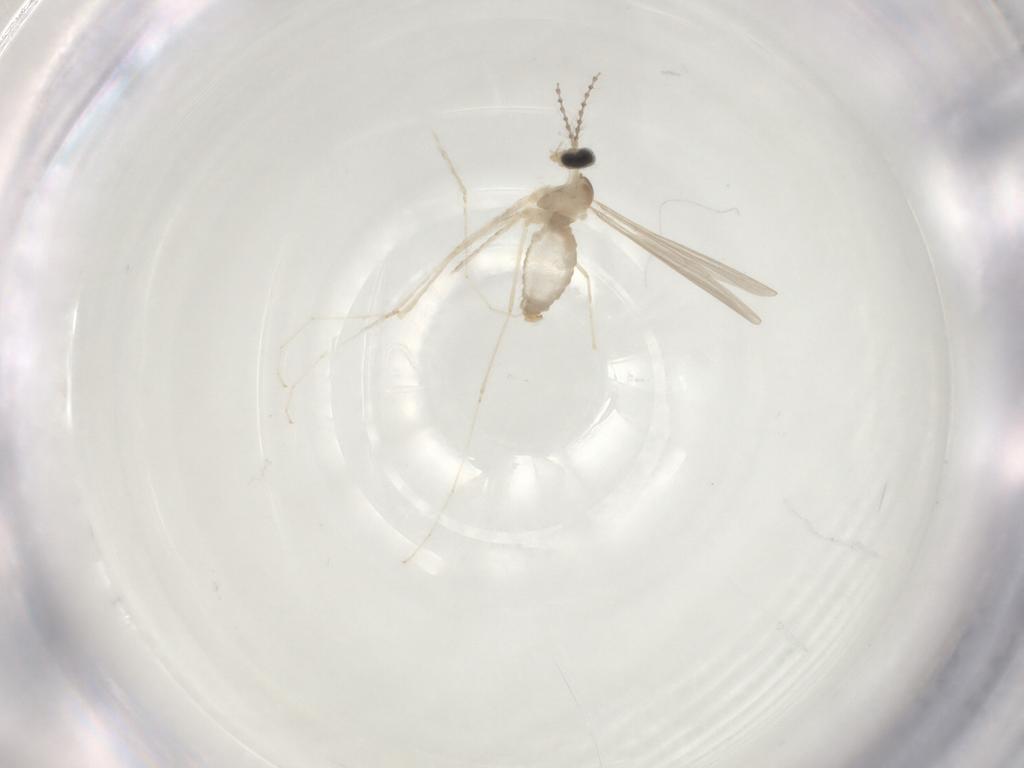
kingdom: Animalia
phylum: Arthropoda
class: Insecta
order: Diptera
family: Cecidomyiidae
